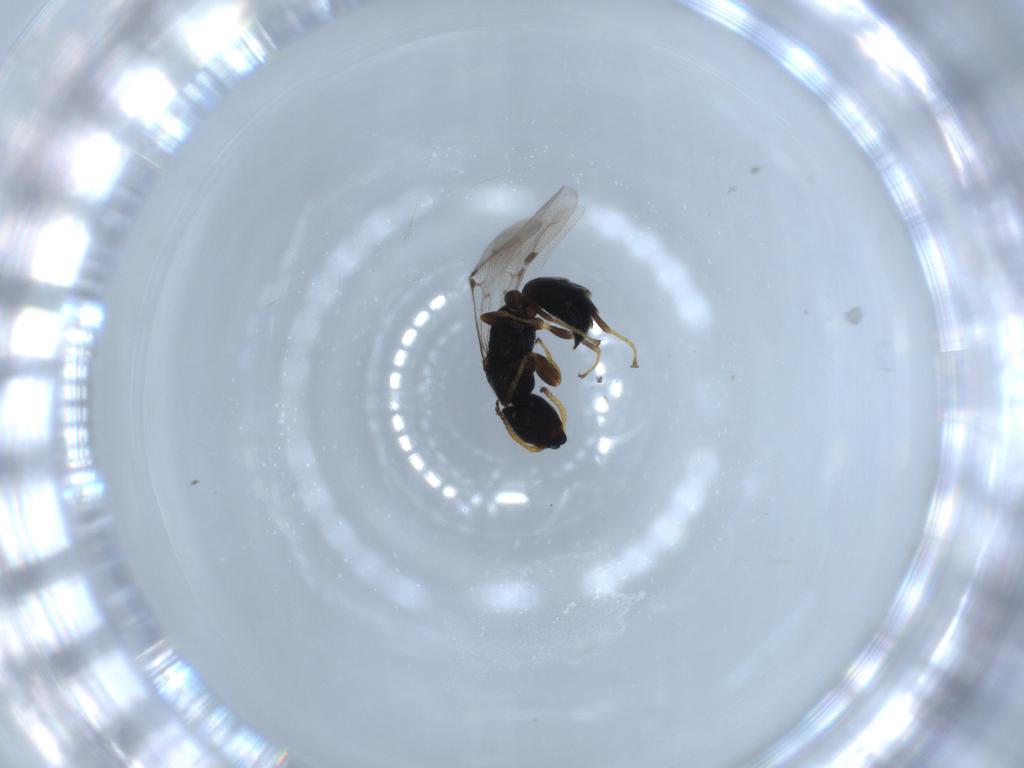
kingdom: Animalia
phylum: Arthropoda
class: Insecta
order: Hymenoptera
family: Bethylidae
